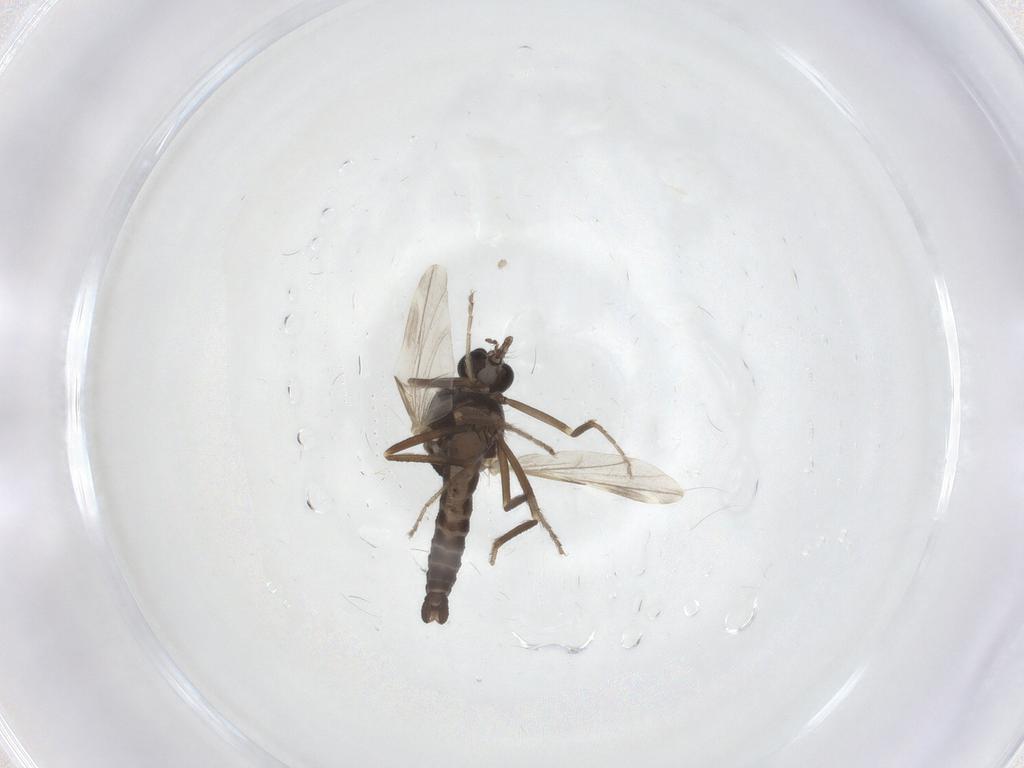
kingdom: Animalia
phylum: Arthropoda
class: Insecta
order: Diptera
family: Ceratopogonidae
